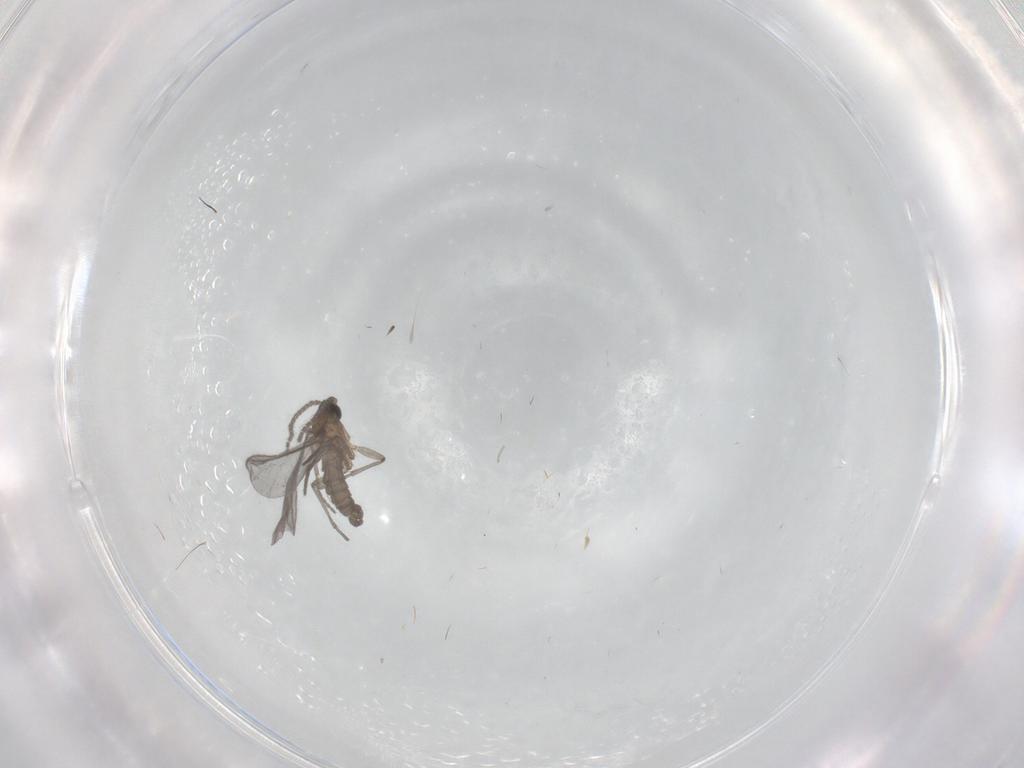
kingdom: Animalia
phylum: Arthropoda
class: Insecta
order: Diptera
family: Sciaridae
